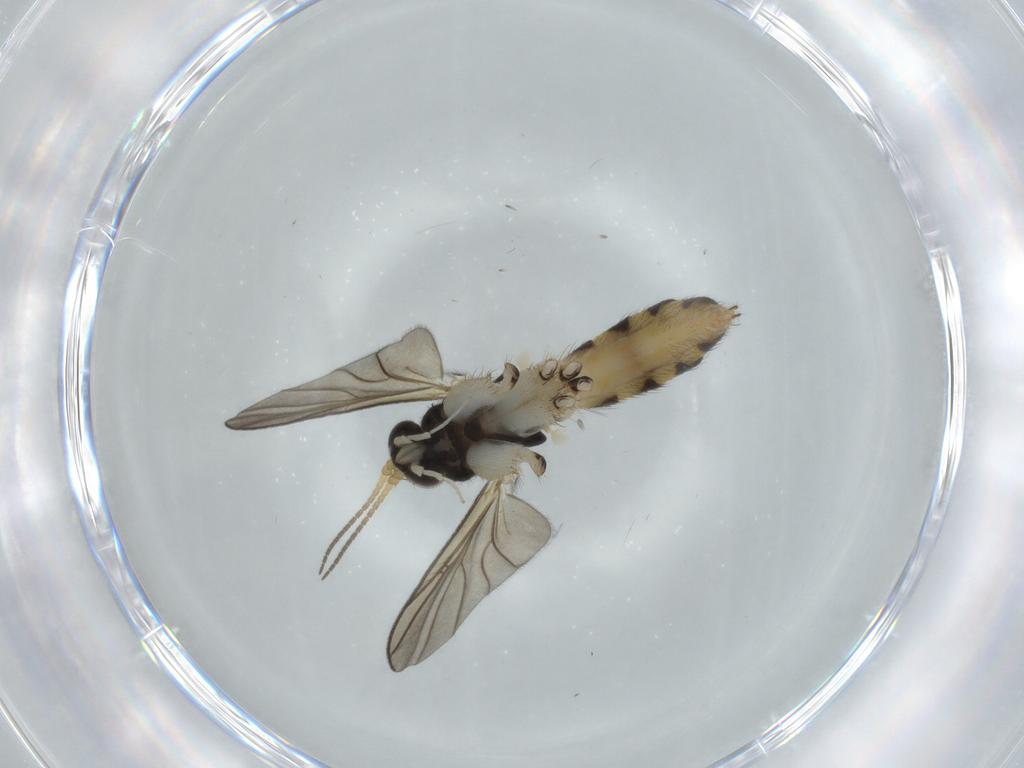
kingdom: Animalia
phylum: Arthropoda
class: Insecta
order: Diptera
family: Mycetophilidae
